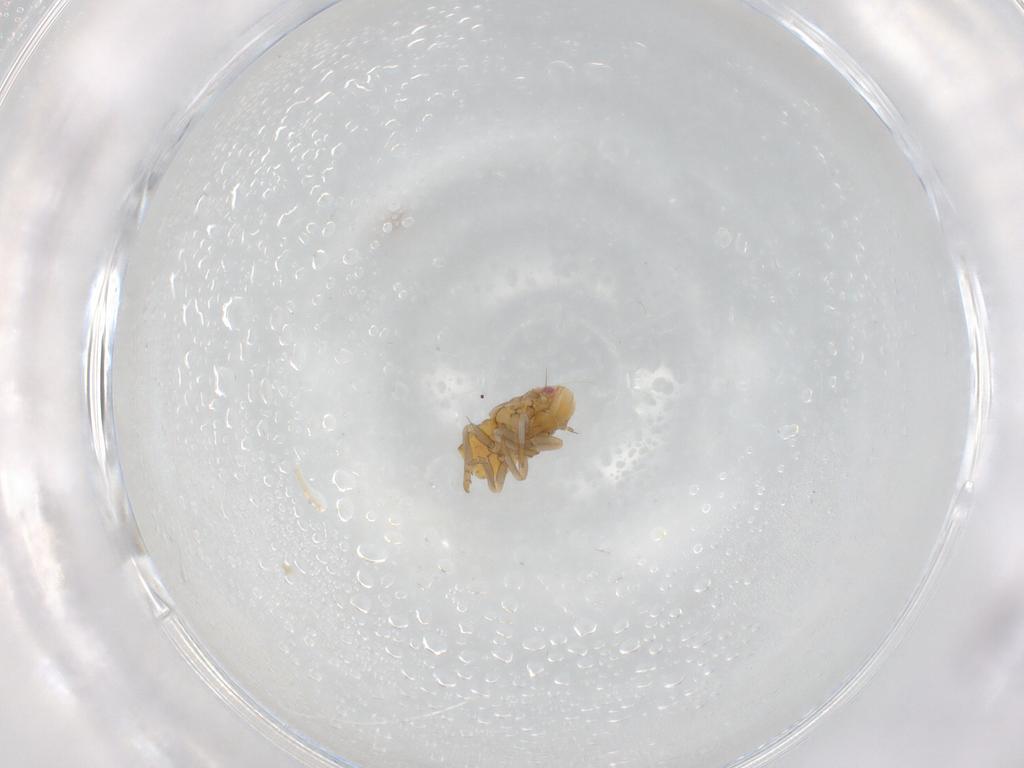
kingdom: Animalia
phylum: Arthropoda
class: Insecta
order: Hemiptera
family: Flatidae
